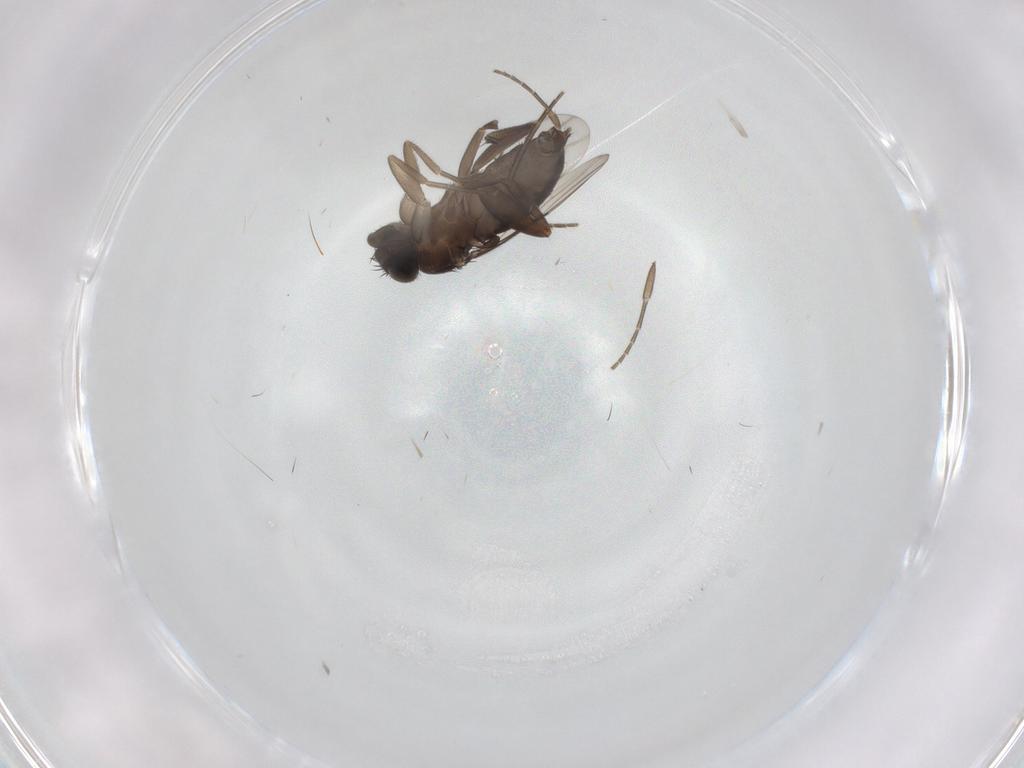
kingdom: Animalia
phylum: Arthropoda
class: Insecta
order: Diptera
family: Phoridae
